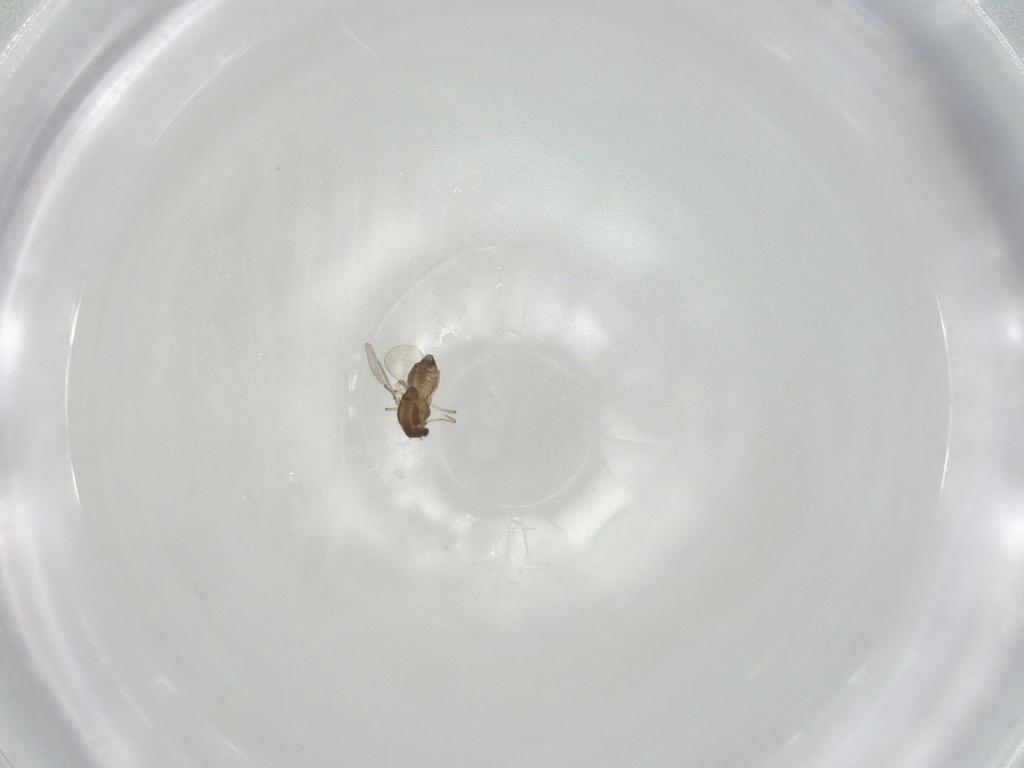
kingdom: Animalia
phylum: Arthropoda
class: Insecta
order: Diptera
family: Chironomidae
